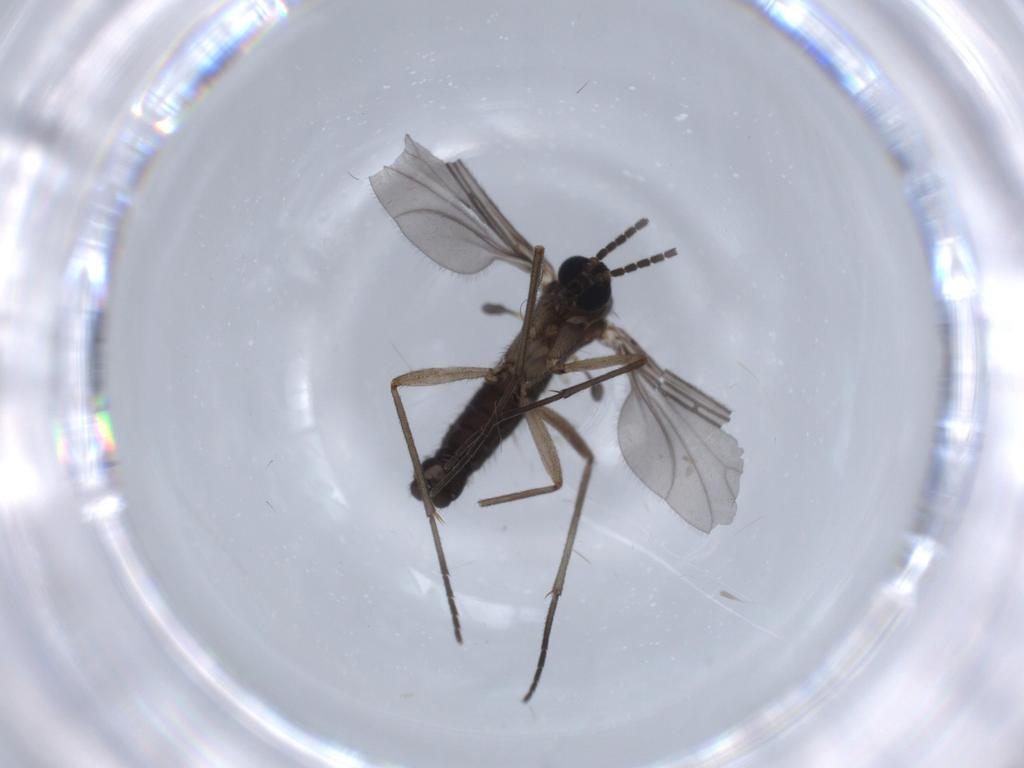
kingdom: Animalia
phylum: Arthropoda
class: Insecta
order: Diptera
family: Sciaridae
